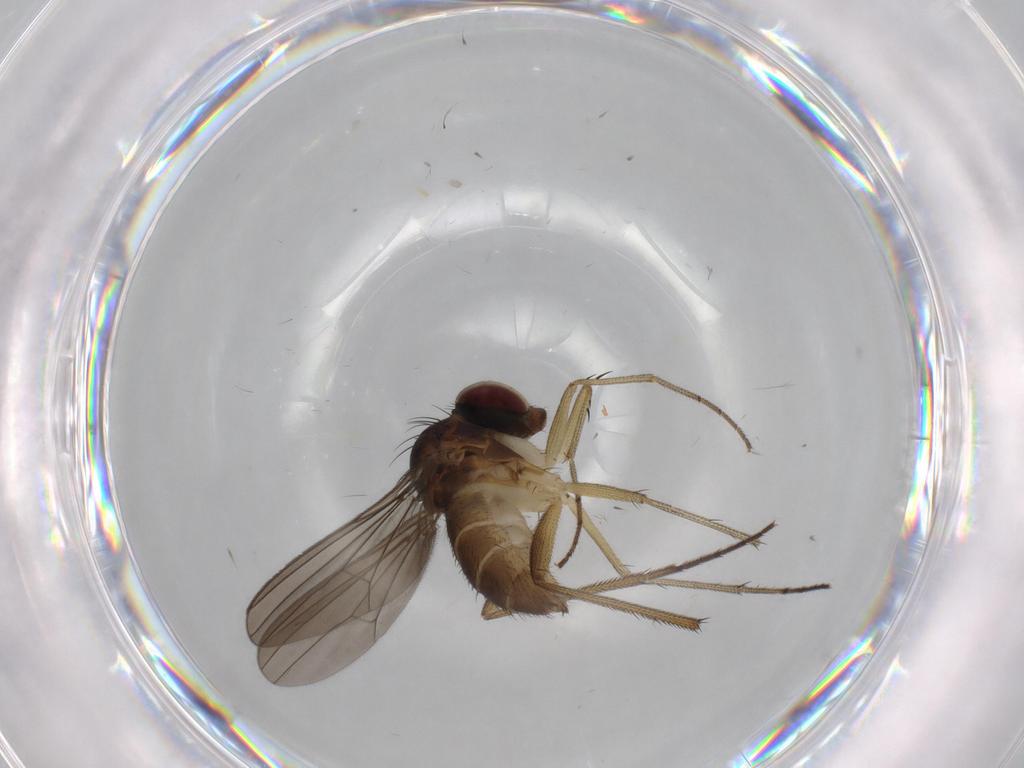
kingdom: Animalia
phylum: Arthropoda
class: Insecta
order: Diptera
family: Dolichopodidae
